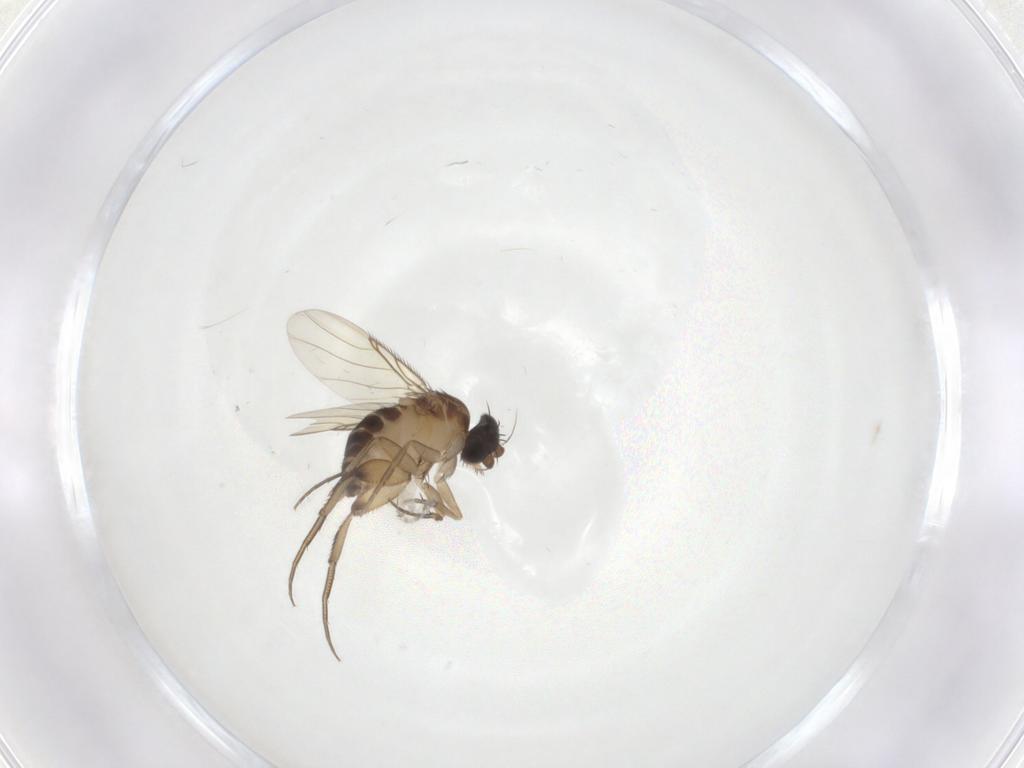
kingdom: Animalia
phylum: Arthropoda
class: Insecta
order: Diptera
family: Phoridae
